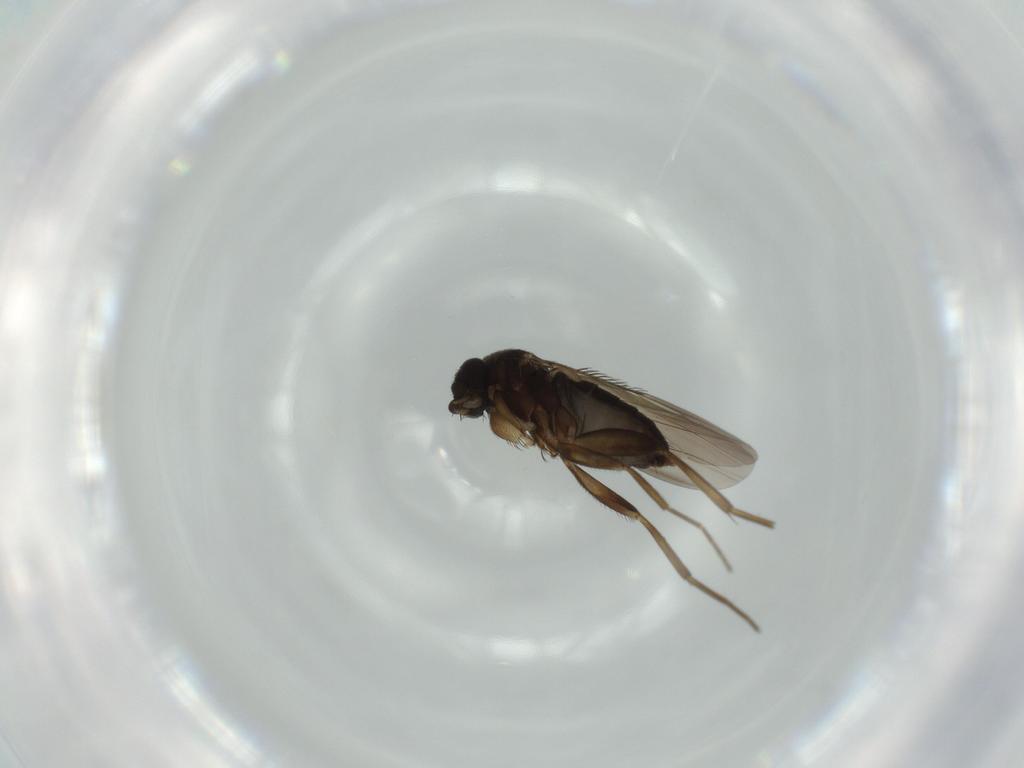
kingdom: Animalia
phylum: Arthropoda
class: Insecta
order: Diptera
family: Phoridae
